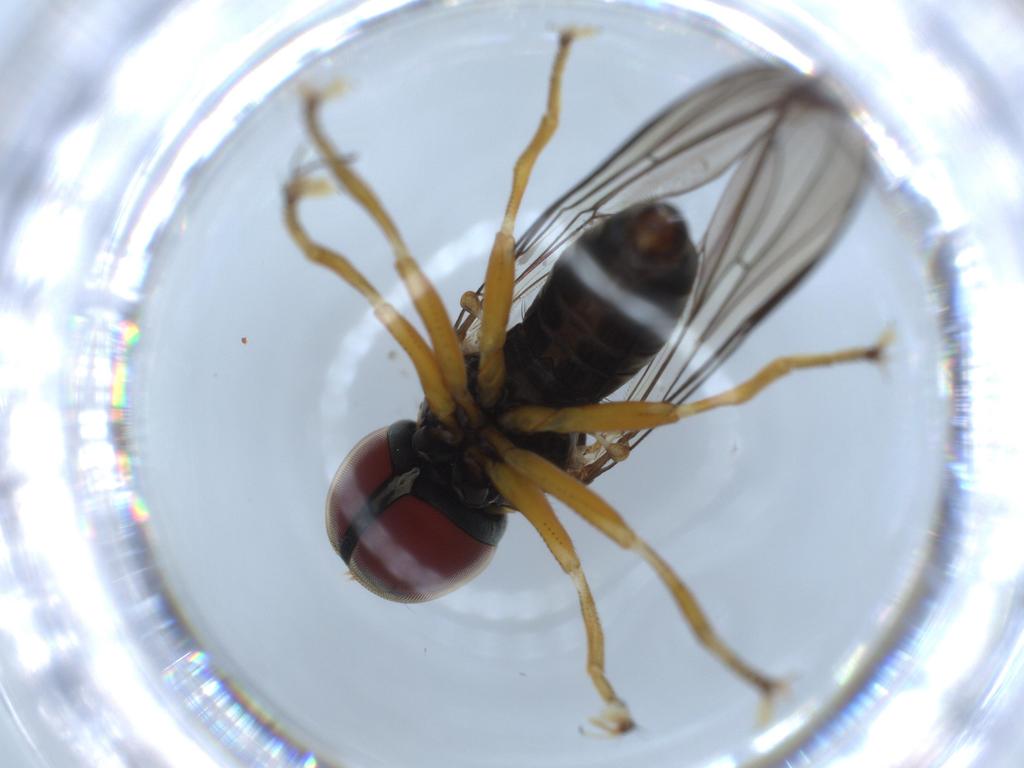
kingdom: Animalia
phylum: Arthropoda
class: Insecta
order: Diptera
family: Pipunculidae
